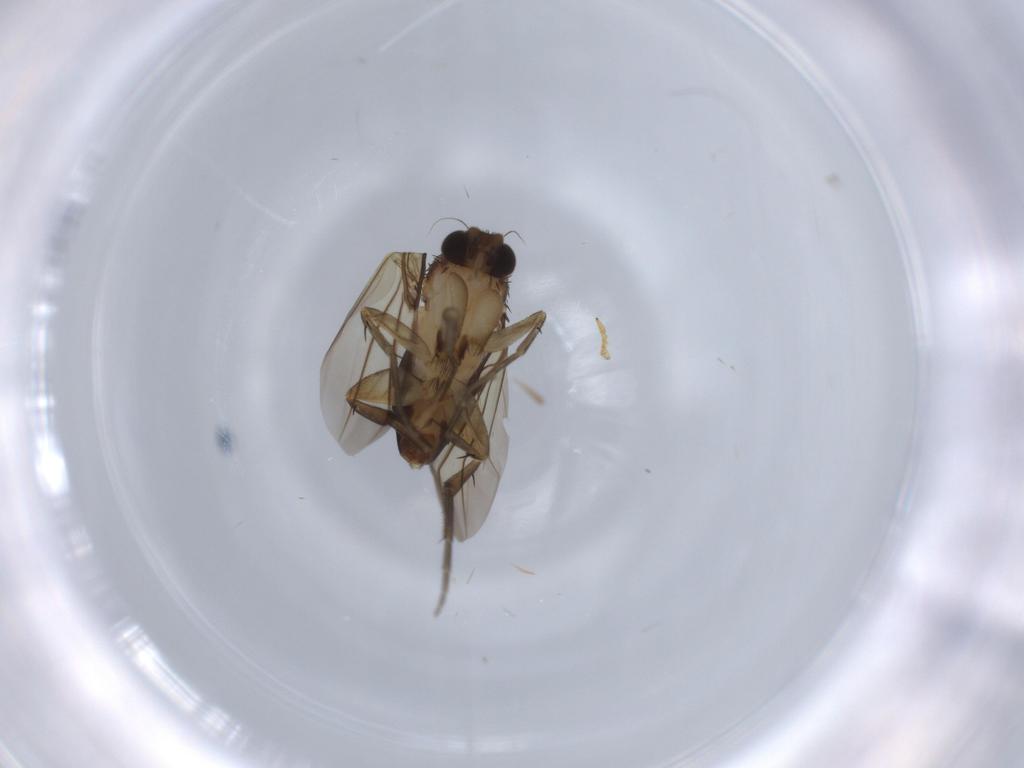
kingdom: Animalia
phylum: Arthropoda
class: Insecta
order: Diptera
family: Phoridae
